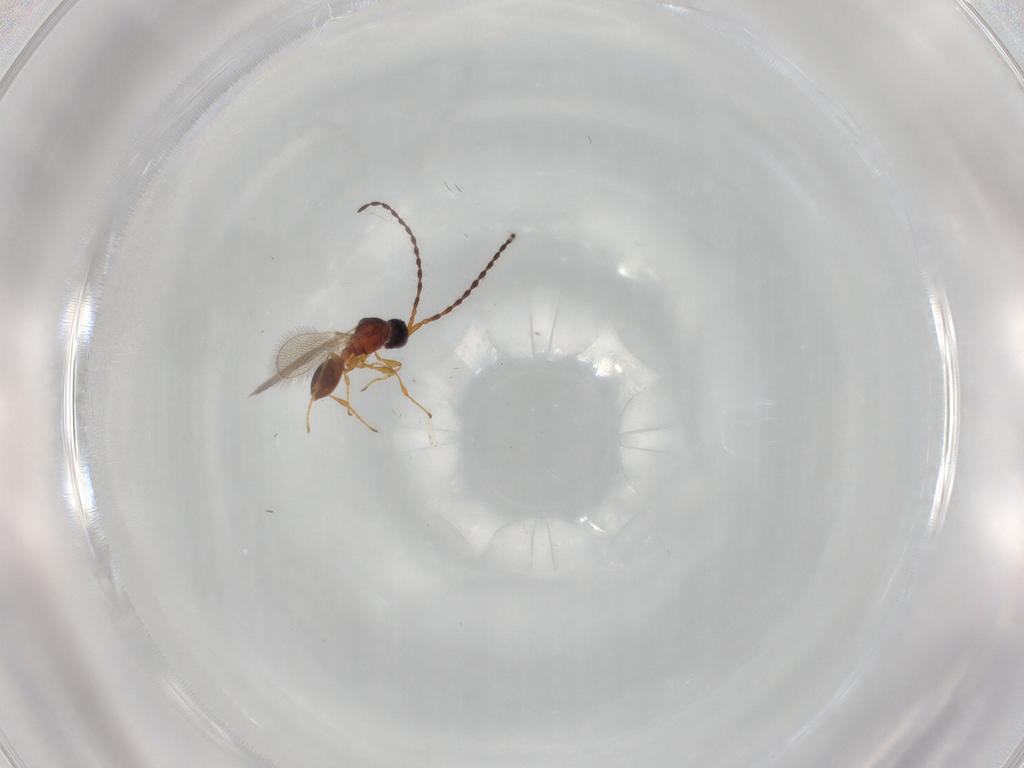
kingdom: Animalia
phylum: Arthropoda
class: Insecta
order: Hymenoptera
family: Diapriidae
